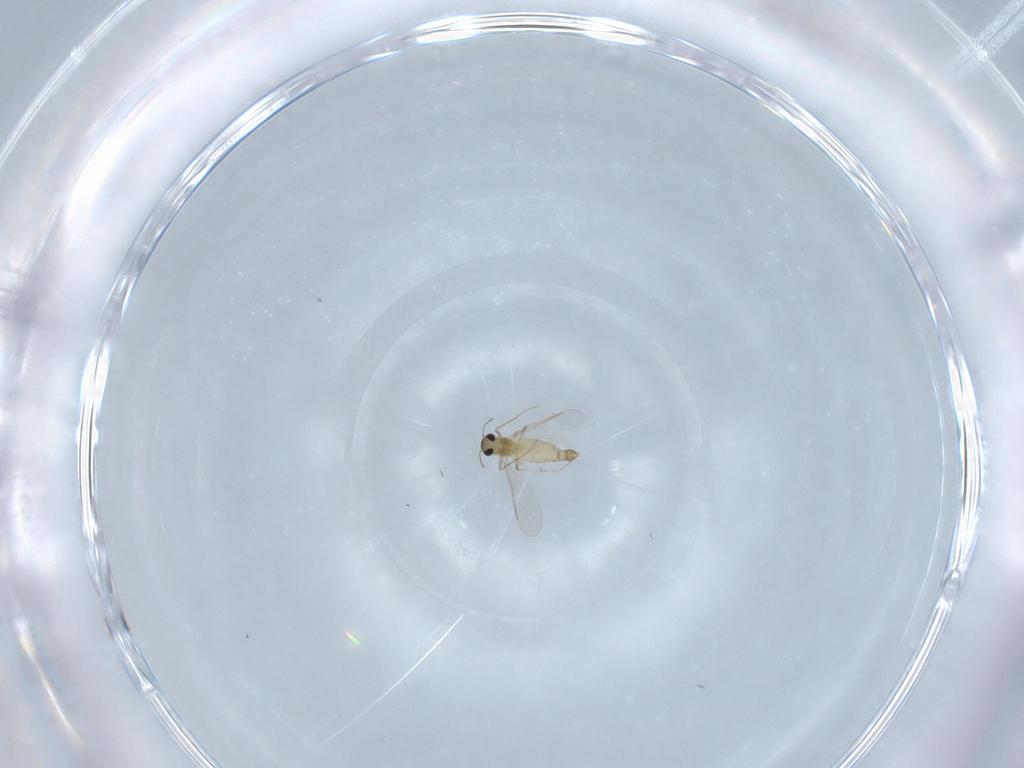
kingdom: Animalia
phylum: Arthropoda
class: Insecta
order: Diptera
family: Chironomidae
